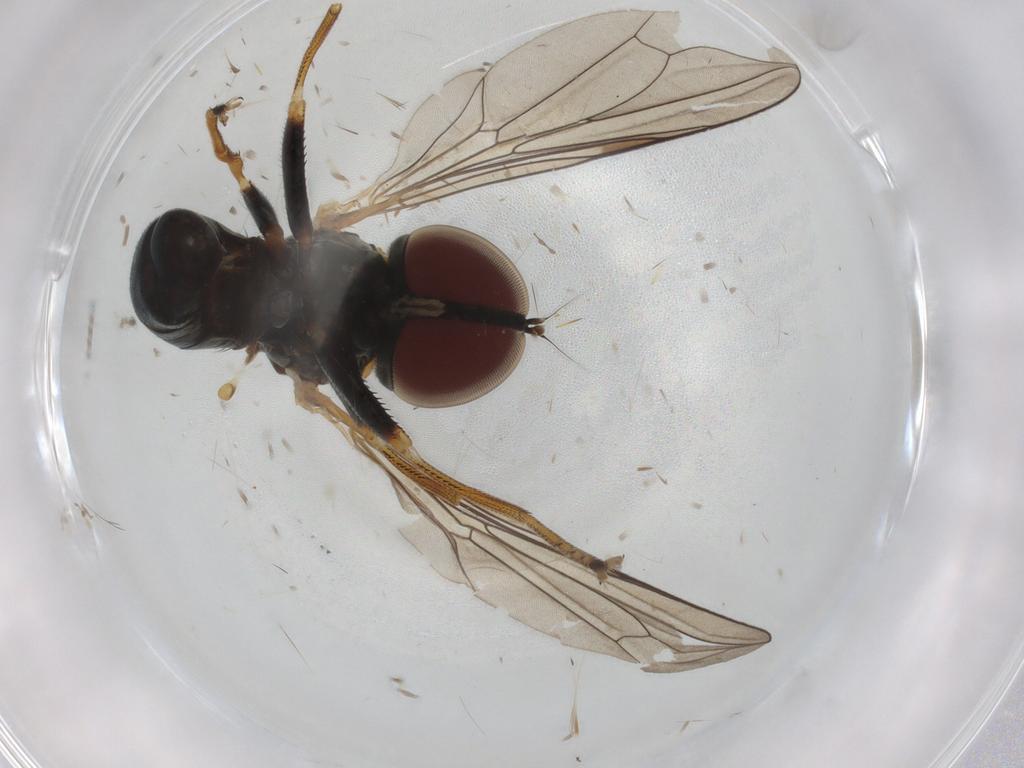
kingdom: Animalia
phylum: Arthropoda
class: Insecta
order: Diptera
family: Pipunculidae
